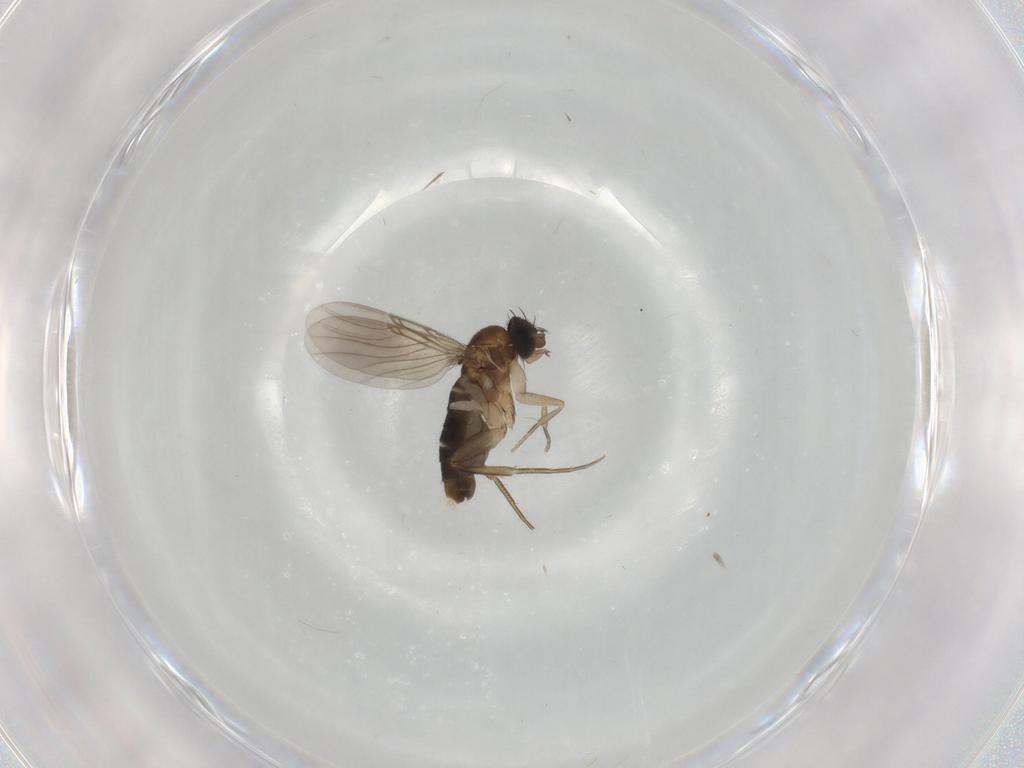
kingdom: Animalia
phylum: Arthropoda
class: Insecta
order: Diptera
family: Phoridae
